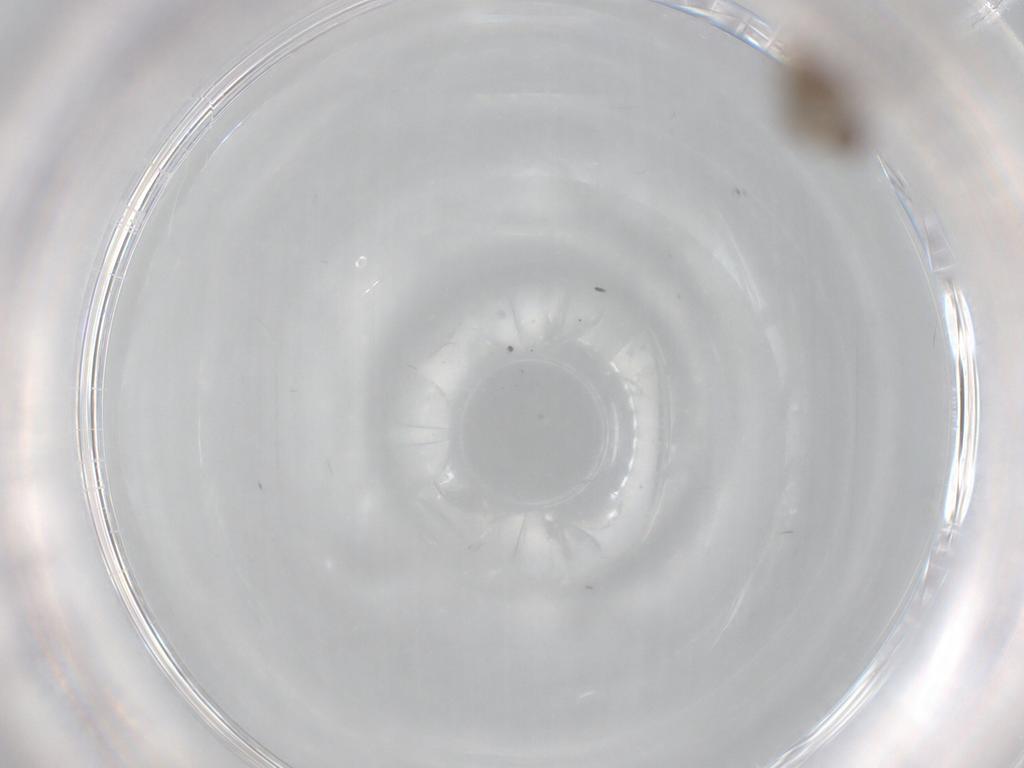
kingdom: Animalia
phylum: Arthropoda
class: Insecta
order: Neuroptera
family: Coniopterygidae
